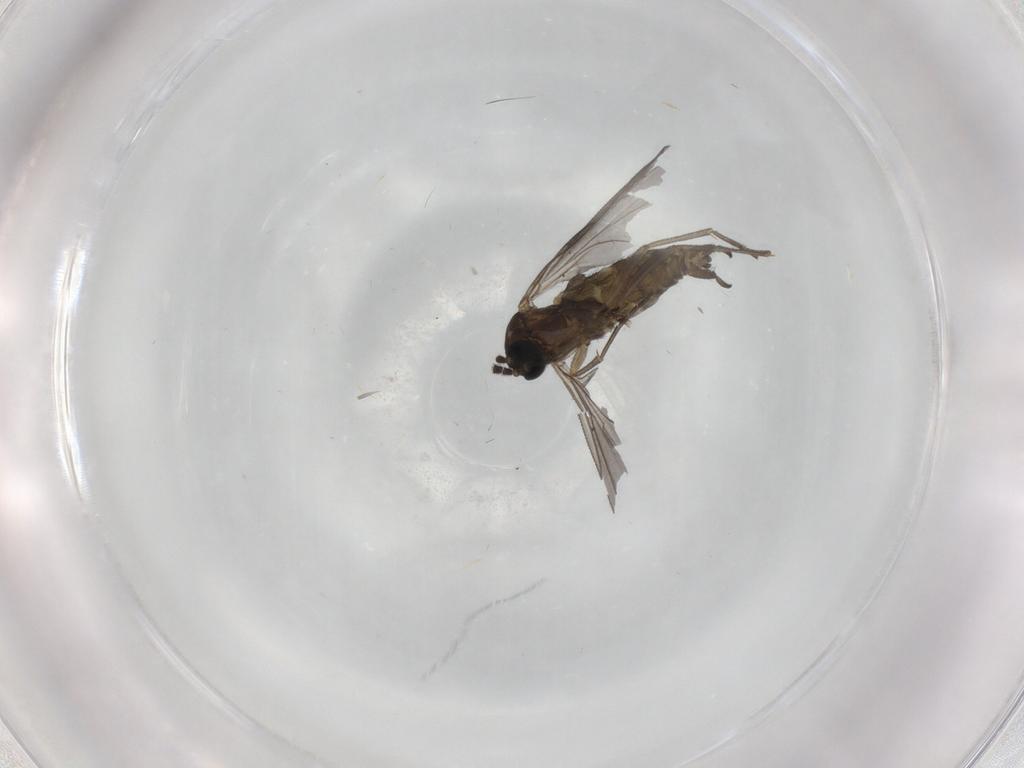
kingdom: Animalia
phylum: Arthropoda
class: Insecta
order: Diptera
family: Sciaridae
